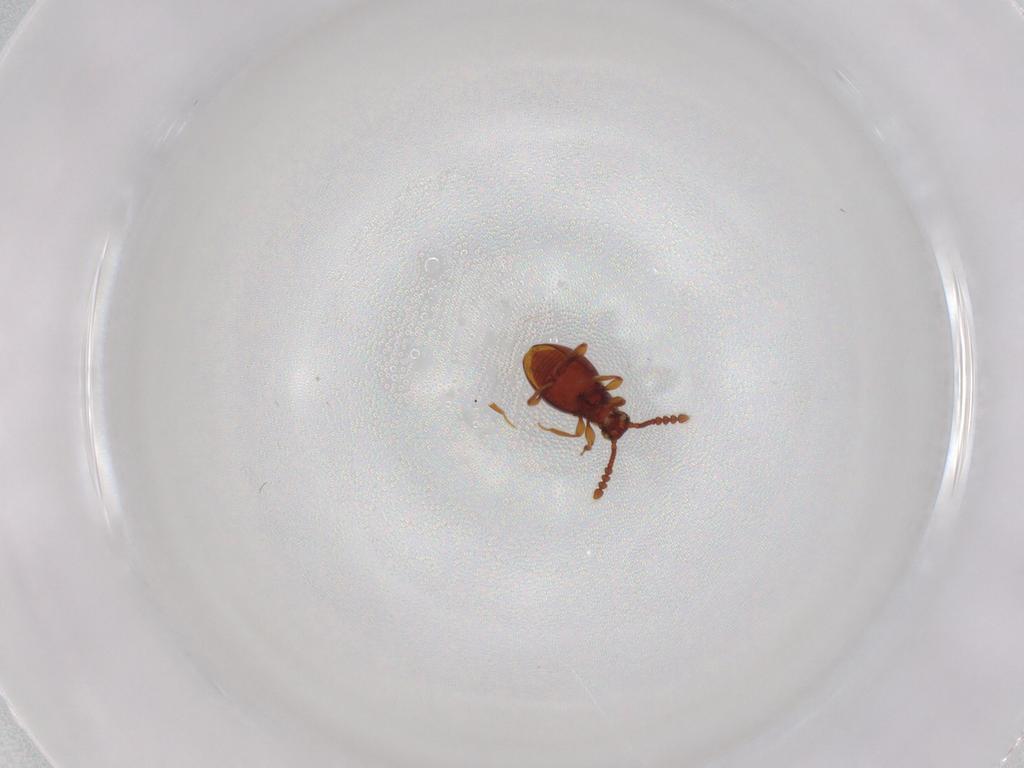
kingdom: Animalia
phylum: Arthropoda
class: Insecta
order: Coleoptera
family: Staphylinidae
